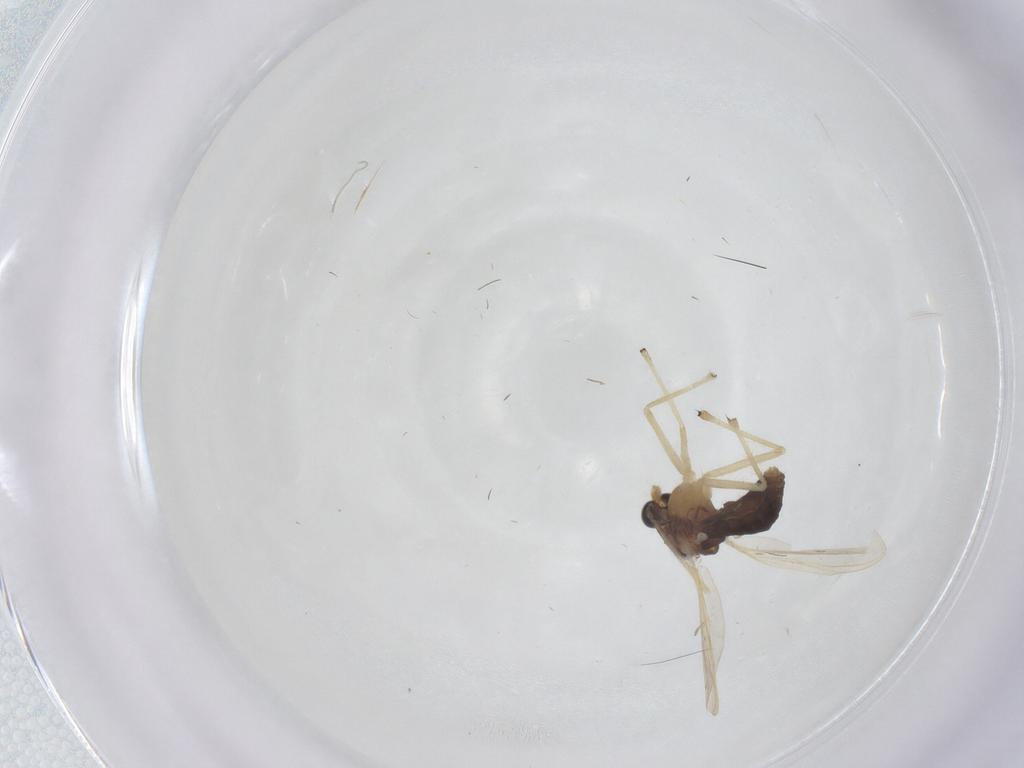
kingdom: Animalia
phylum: Arthropoda
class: Insecta
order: Diptera
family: Chironomidae
